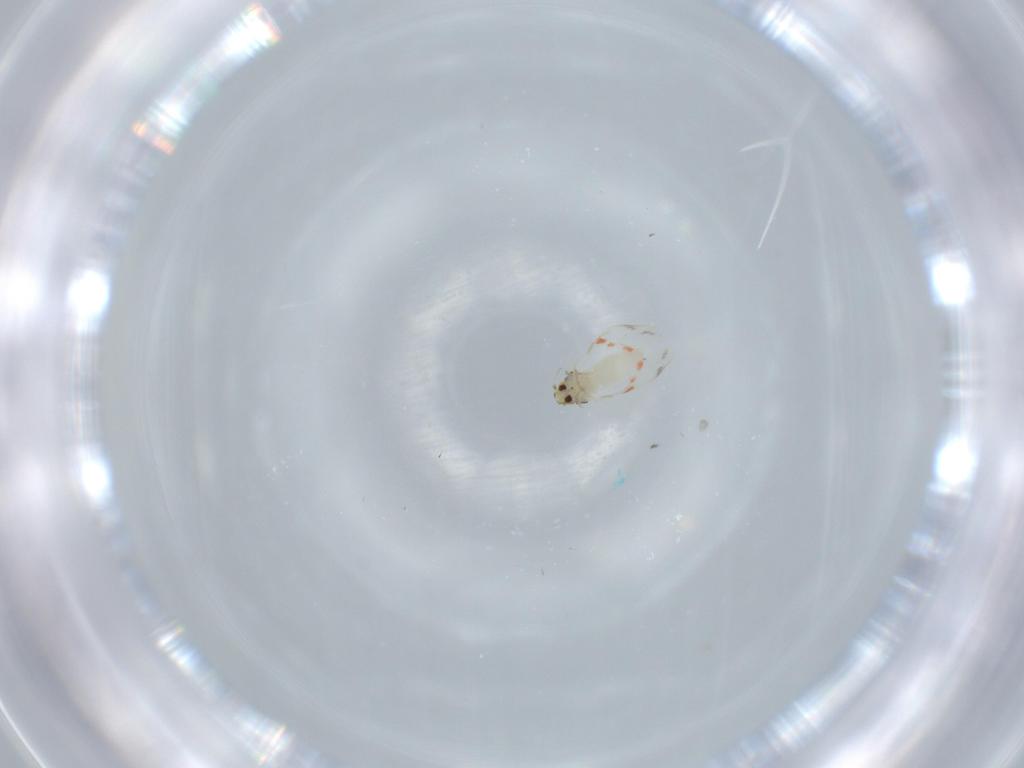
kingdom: Animalia
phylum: Arthropoda
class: Insecta
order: Hemiptera
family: Aleyrodidae
